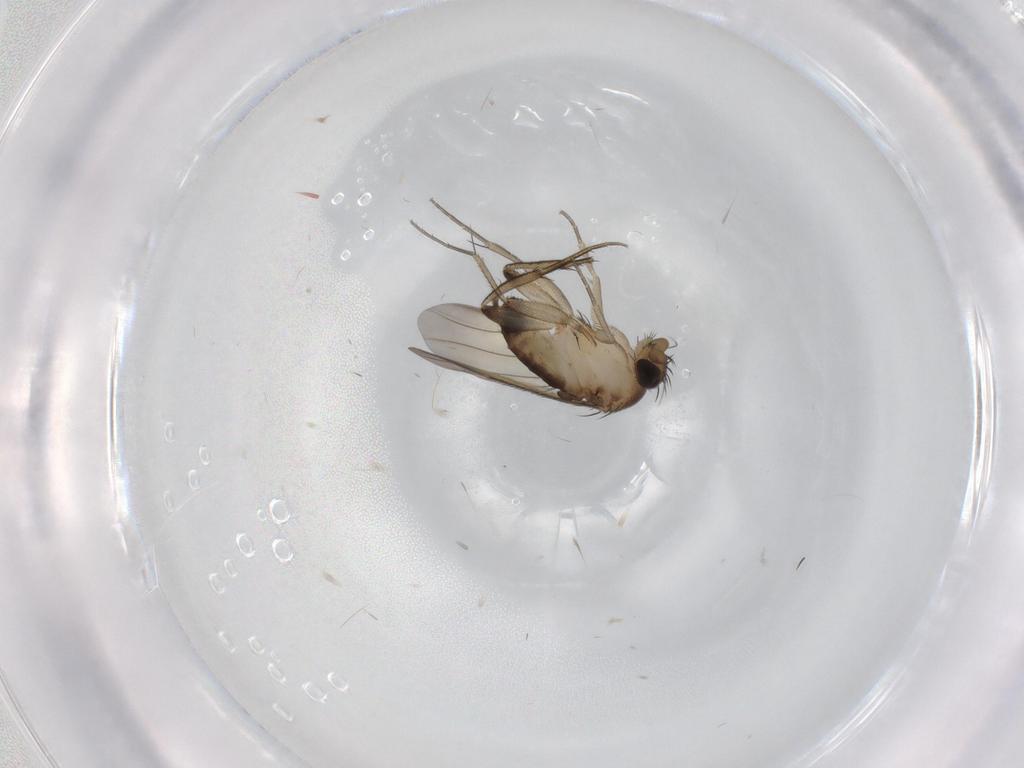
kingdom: Animalia
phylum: Arthropoda
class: Insecta
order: Diptera
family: Phoridae
